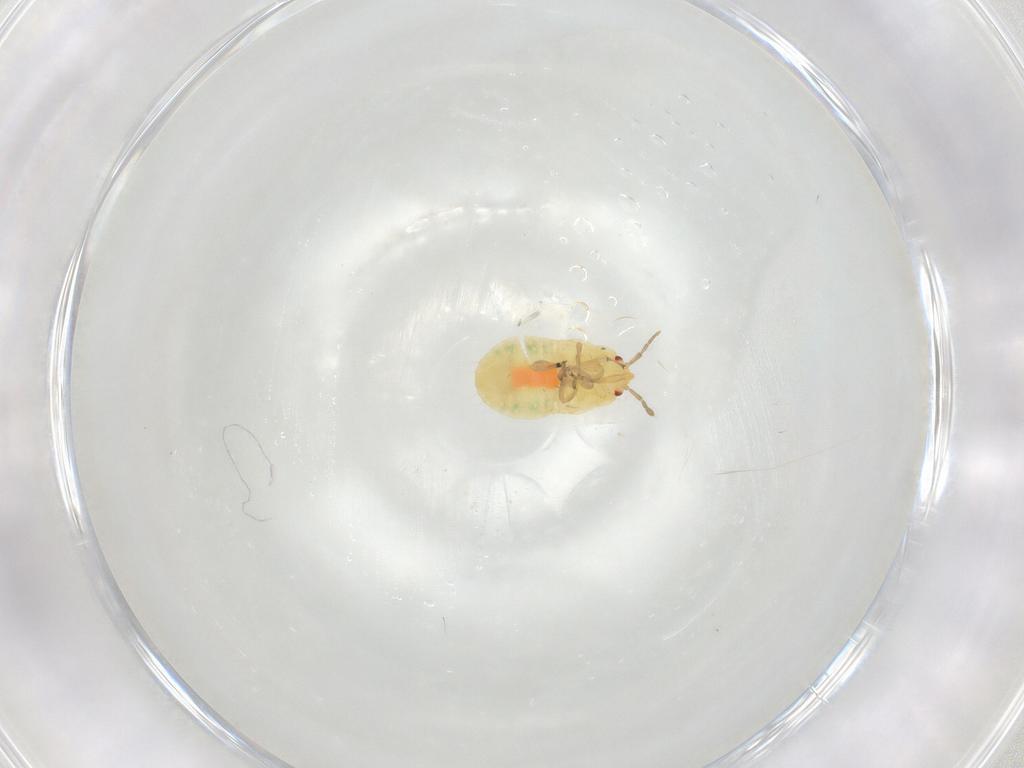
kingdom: Animalia
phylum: Arthropoda
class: Insecta
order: Hemiptera
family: Anthocoridae
